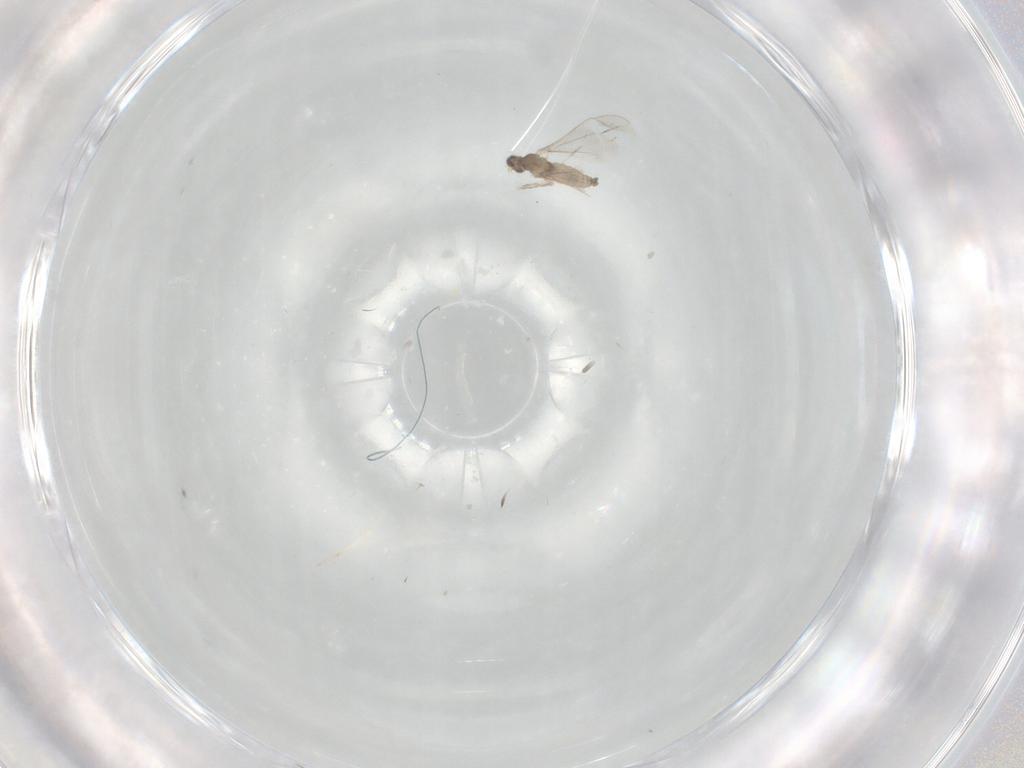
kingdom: Animalia
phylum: Arthropoda
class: Insecta
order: Diptera
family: Cecidomyiidae
